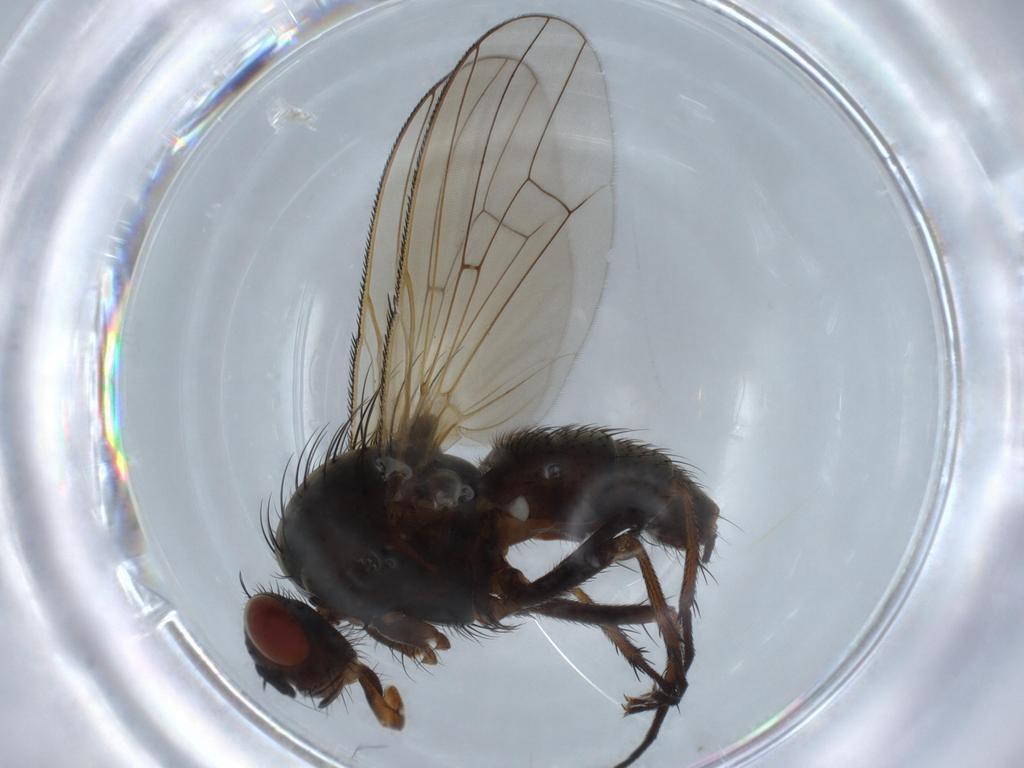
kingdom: Animalia
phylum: Arthropoda
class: Insecta
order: Diptera
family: Anthomyiidae
